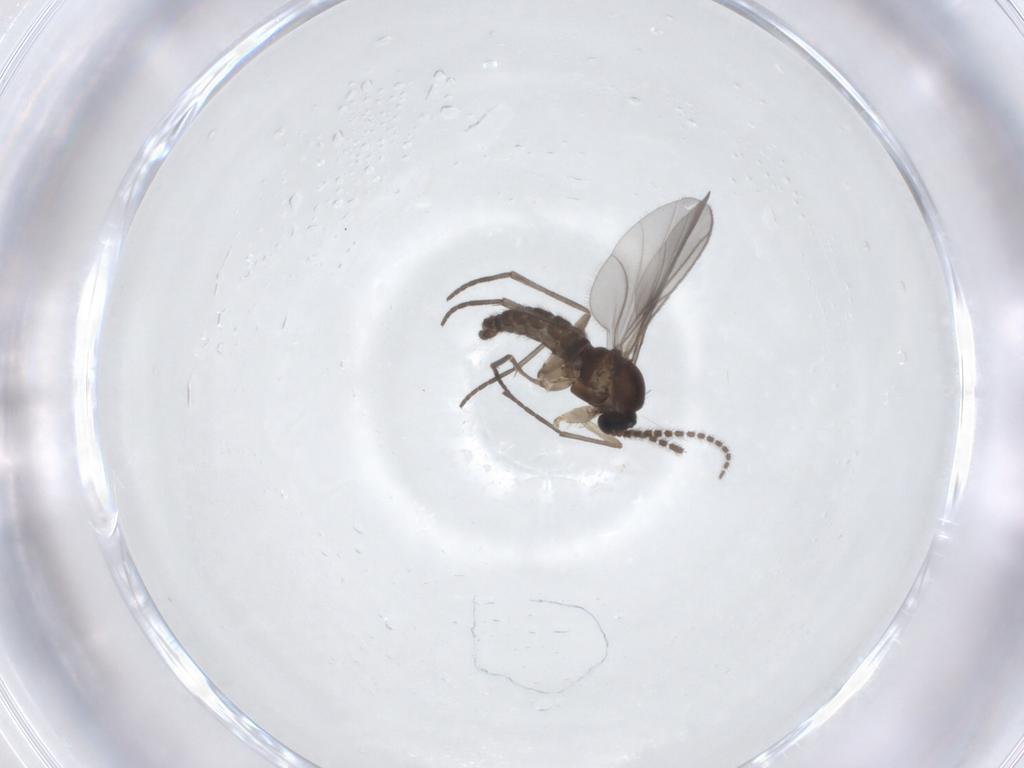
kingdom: Animalia
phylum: Arthropoda
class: Insecta
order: Diptera
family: Sciaridae
